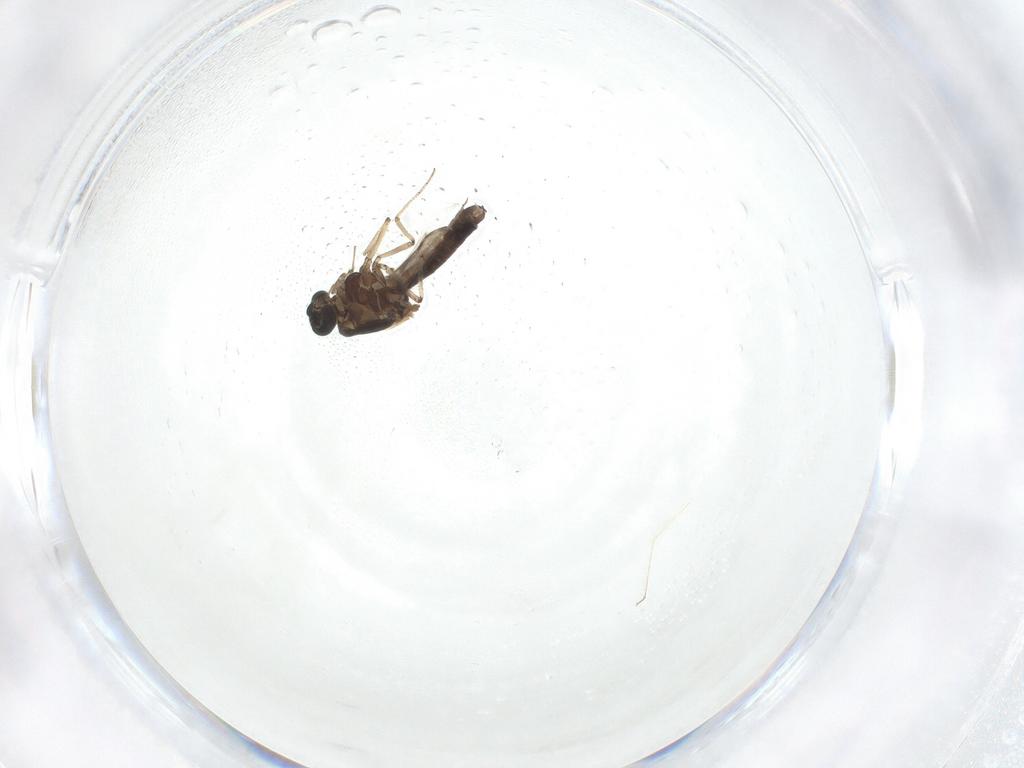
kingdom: Animalia
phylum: Arthropoda
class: Insecta
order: Diptera
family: Ceratopogonidae
